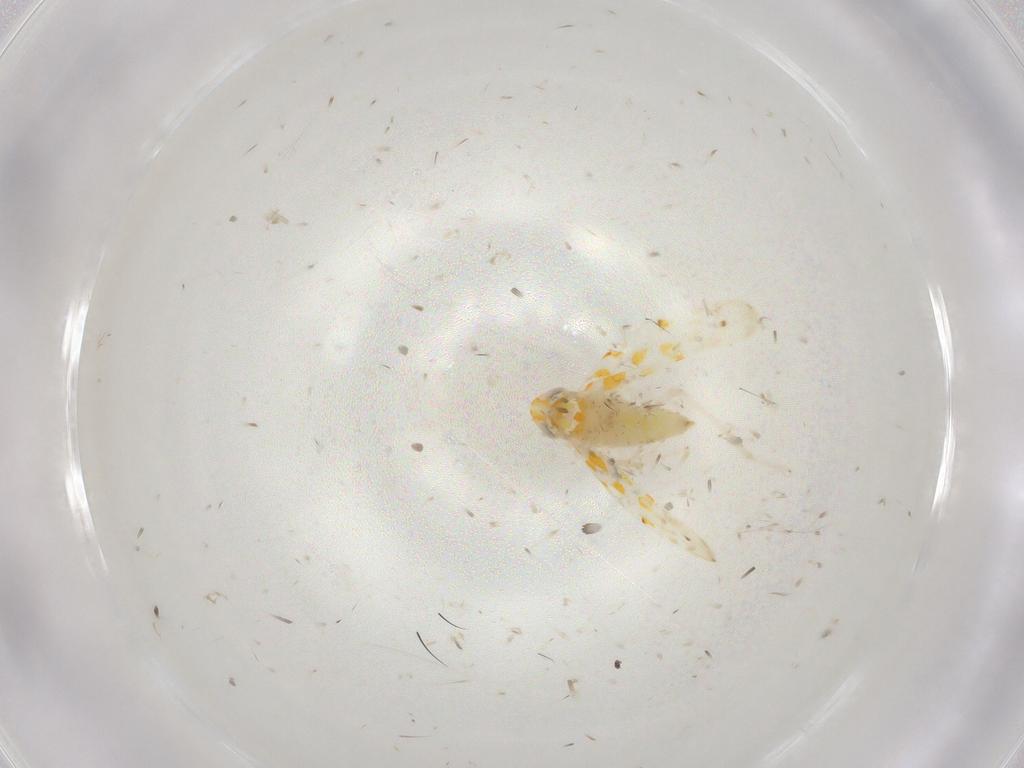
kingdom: Animalia
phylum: Arthropoda
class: Insecta
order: Hemiptera
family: Cicadellidae
